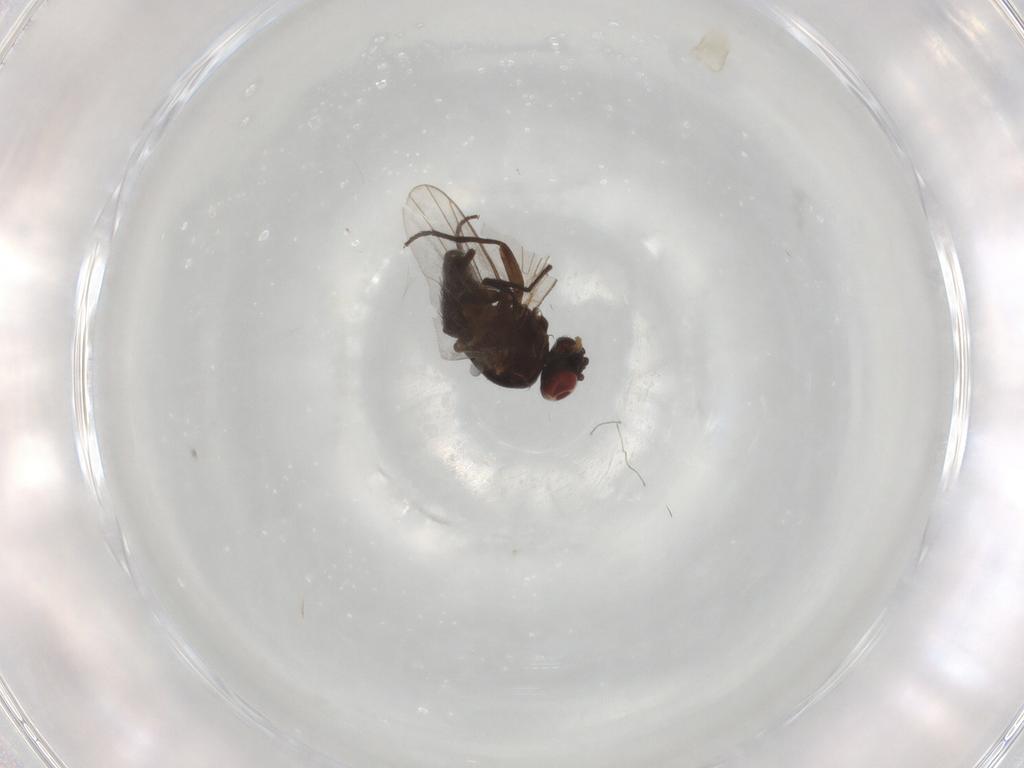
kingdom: Animalia
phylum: Arthropoda
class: Insecta
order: Diptera
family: Agromyzidae
